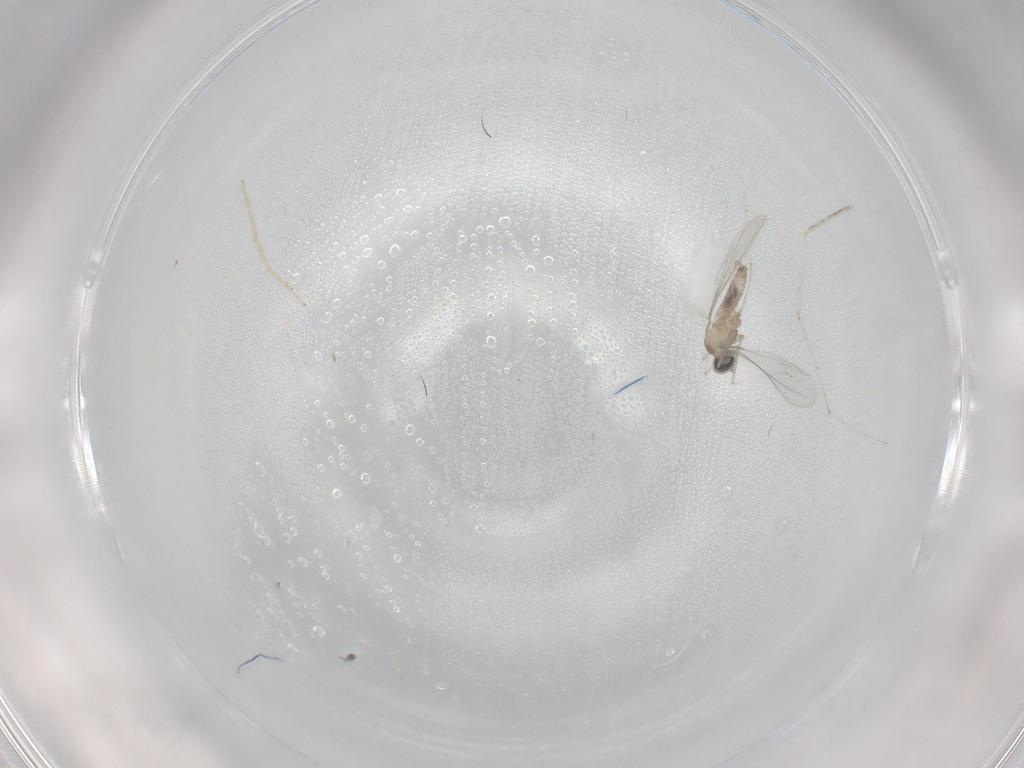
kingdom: Animalia
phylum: Arthropoda
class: Insecta
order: Diptera
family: Cecidomyiidae
